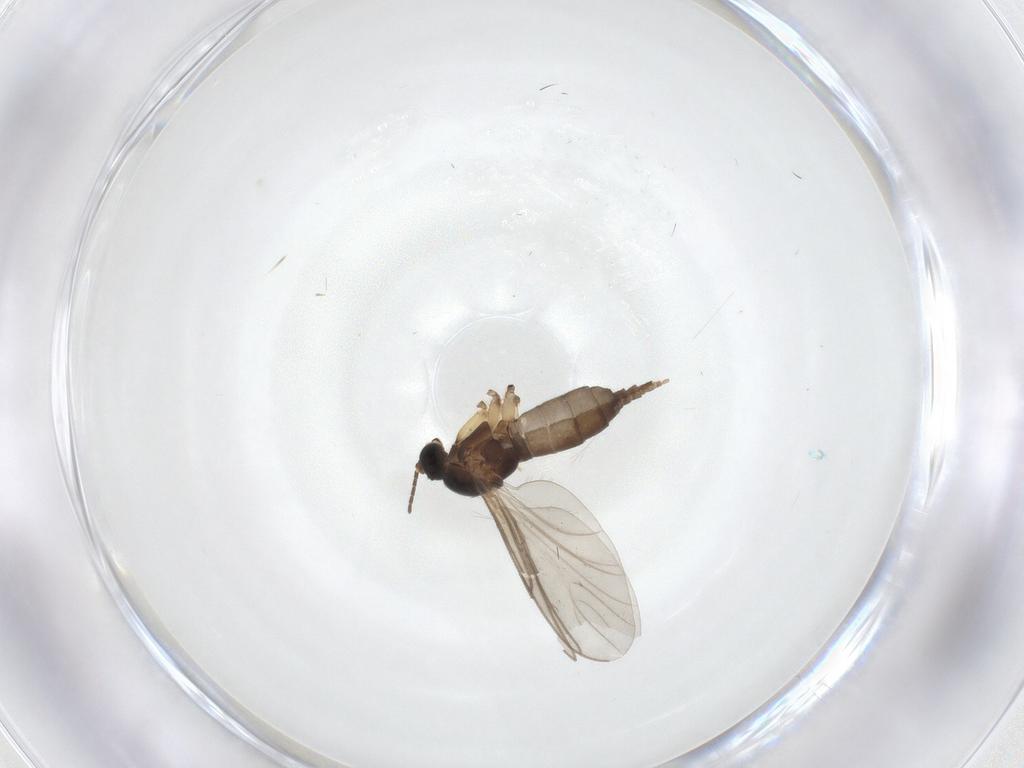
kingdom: Animalia
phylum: Arthropoda
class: Insecta
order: Diptera
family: Sciaridae
